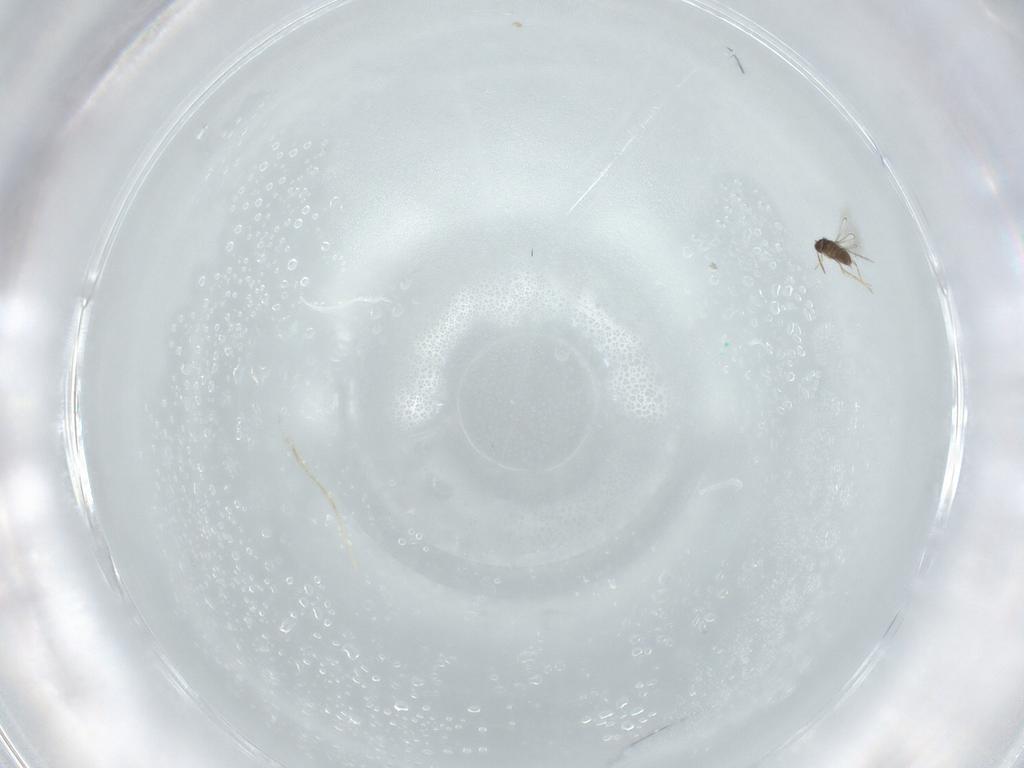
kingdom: Animalia
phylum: Arthropoda
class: Insecta
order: Hymenoptera
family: Mymaridae
